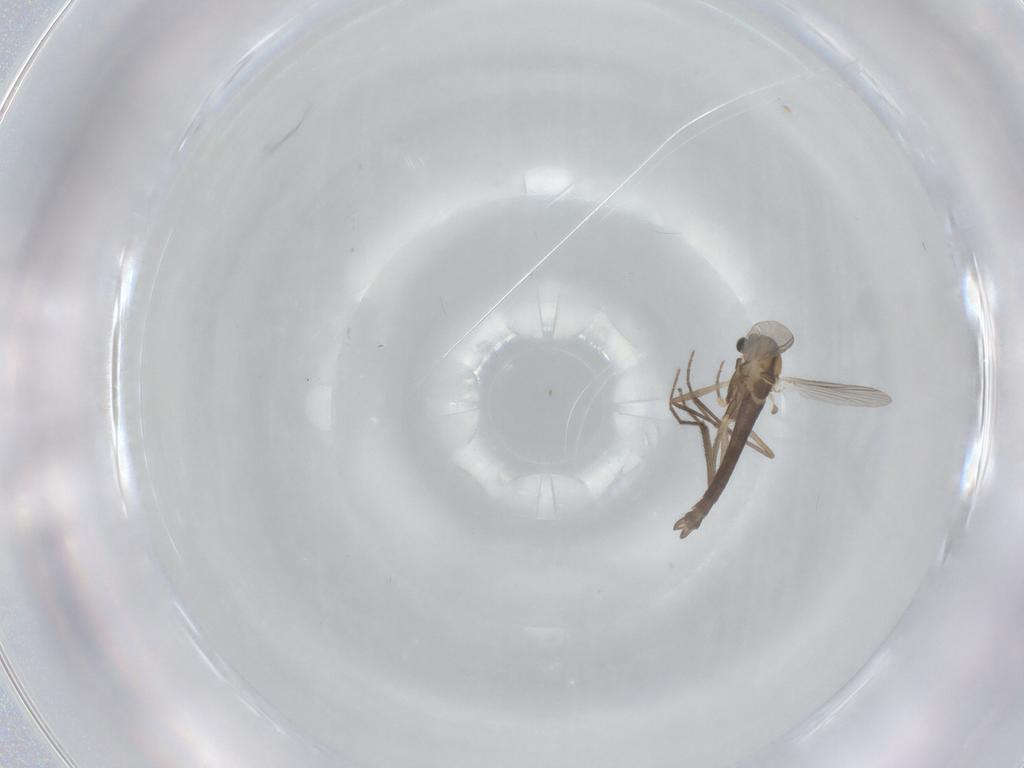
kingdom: Animalia
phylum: Arthropoda
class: Insecta
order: Diptera
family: Chironomidae
